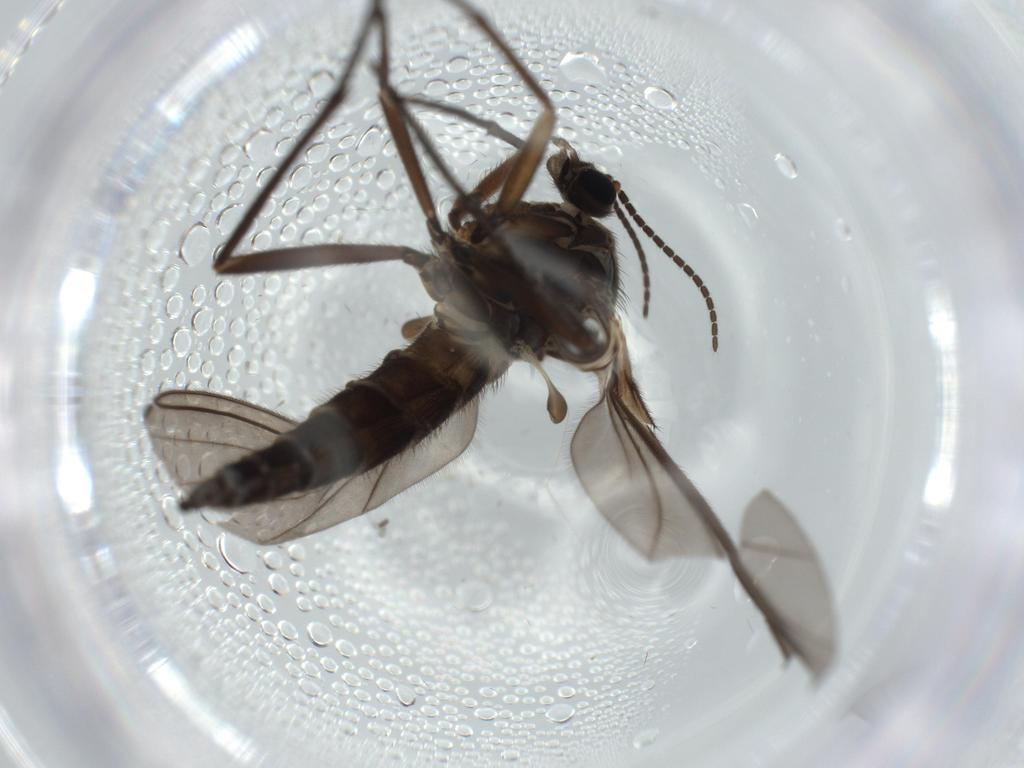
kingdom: Animalia
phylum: Arthropoda
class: Insecta
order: Diptera
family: Sciaridae
